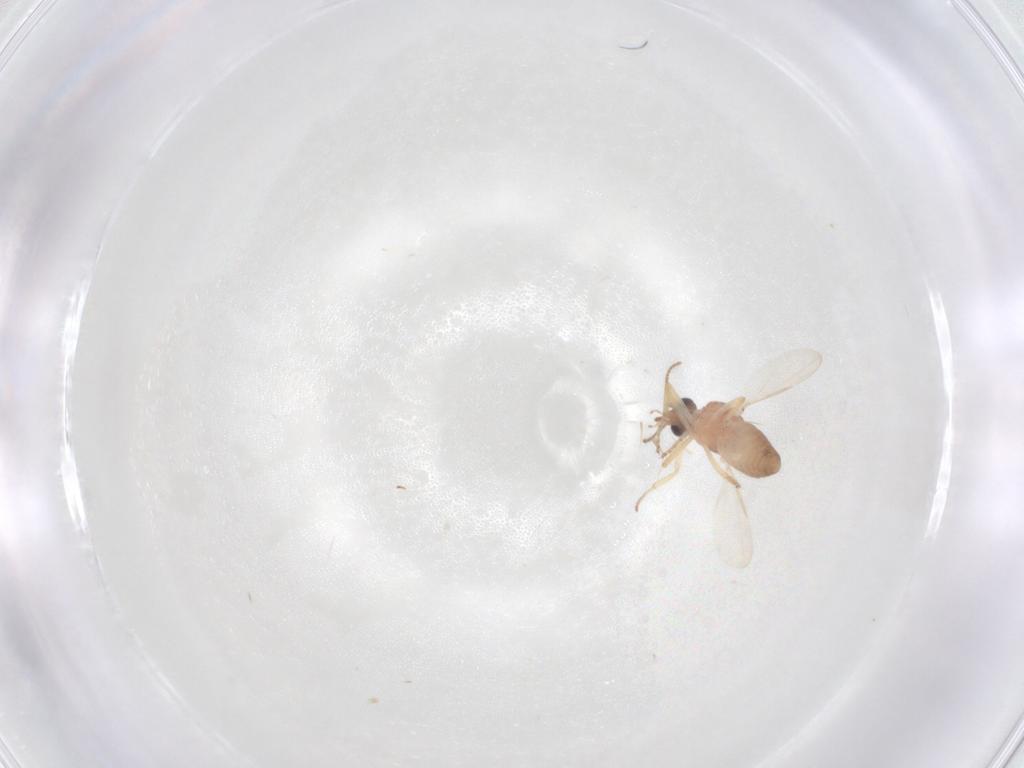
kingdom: Animalia
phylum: Arthropoda
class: Insecta
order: Diptera
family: Ceratopogonidae
